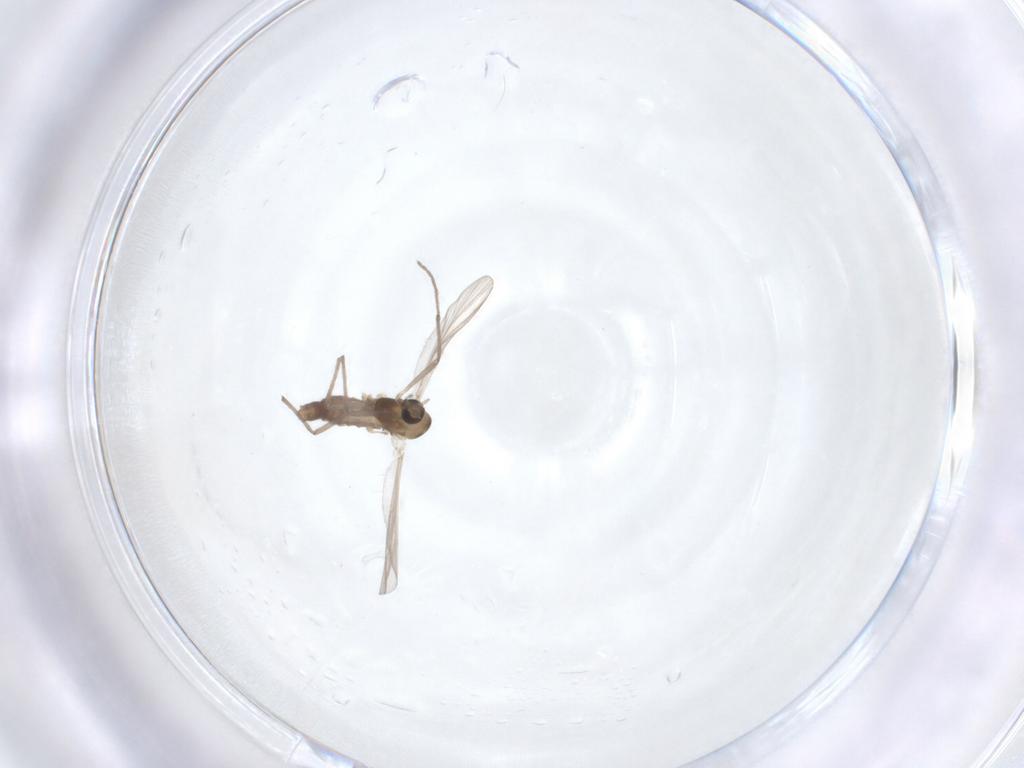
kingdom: Animalia
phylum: Arthropoda
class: Insecta
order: Diptera
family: Chironomidae
